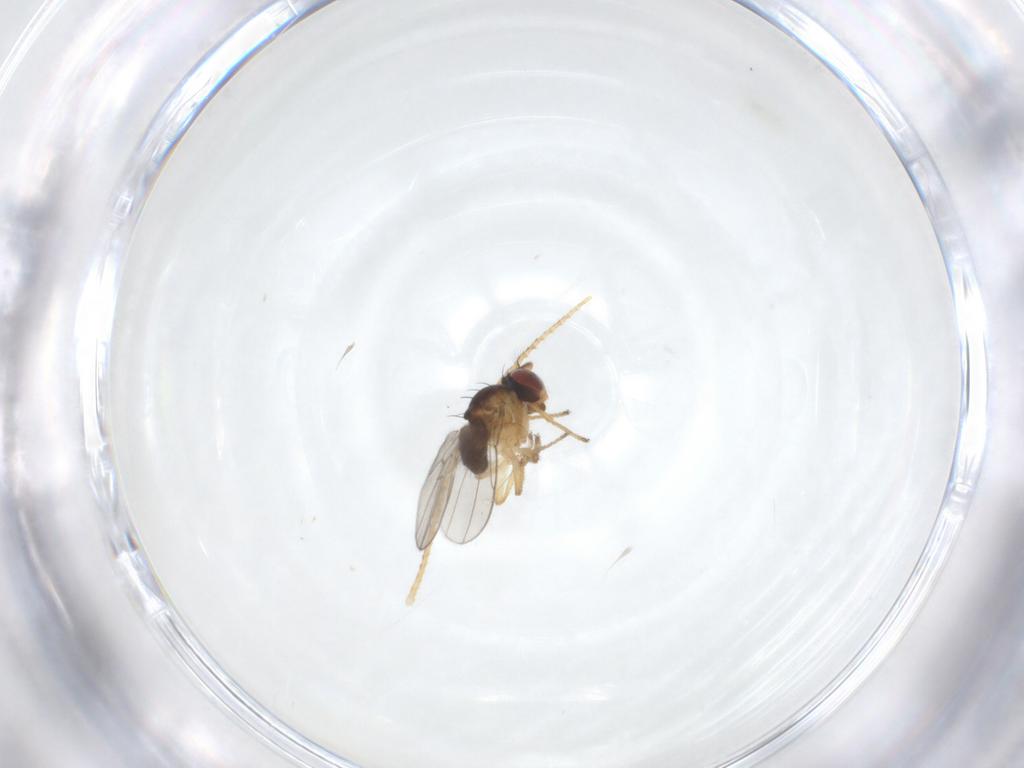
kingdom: Animalia
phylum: Arthropoda
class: Insecta
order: Diptera
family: Ephydridae
